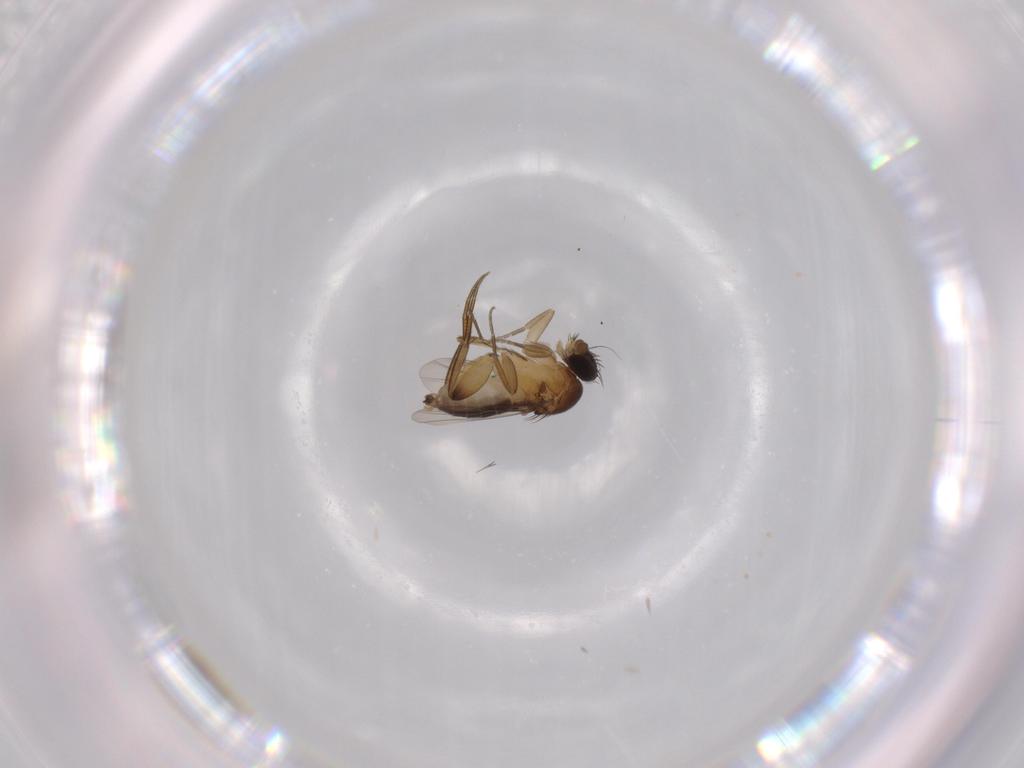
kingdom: Animalia
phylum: Arthropoda
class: Insecta
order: Diptera
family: Phoridae
